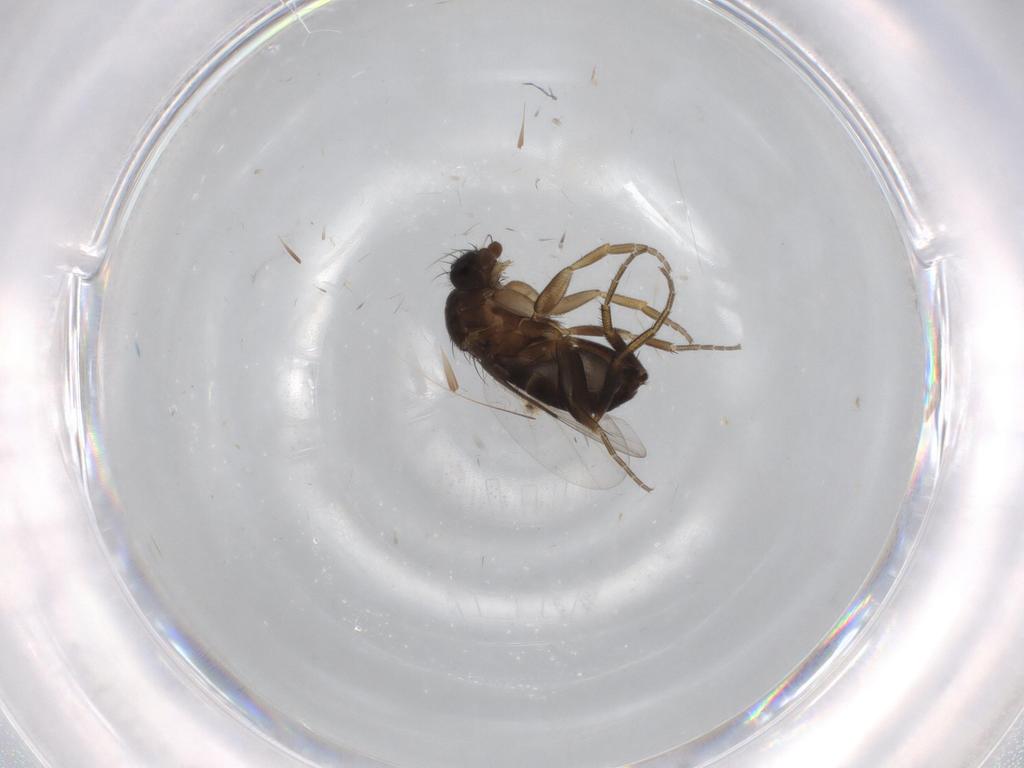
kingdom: Animalia
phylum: Arthropoda
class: Insecta
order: Diptera
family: Phoridae
